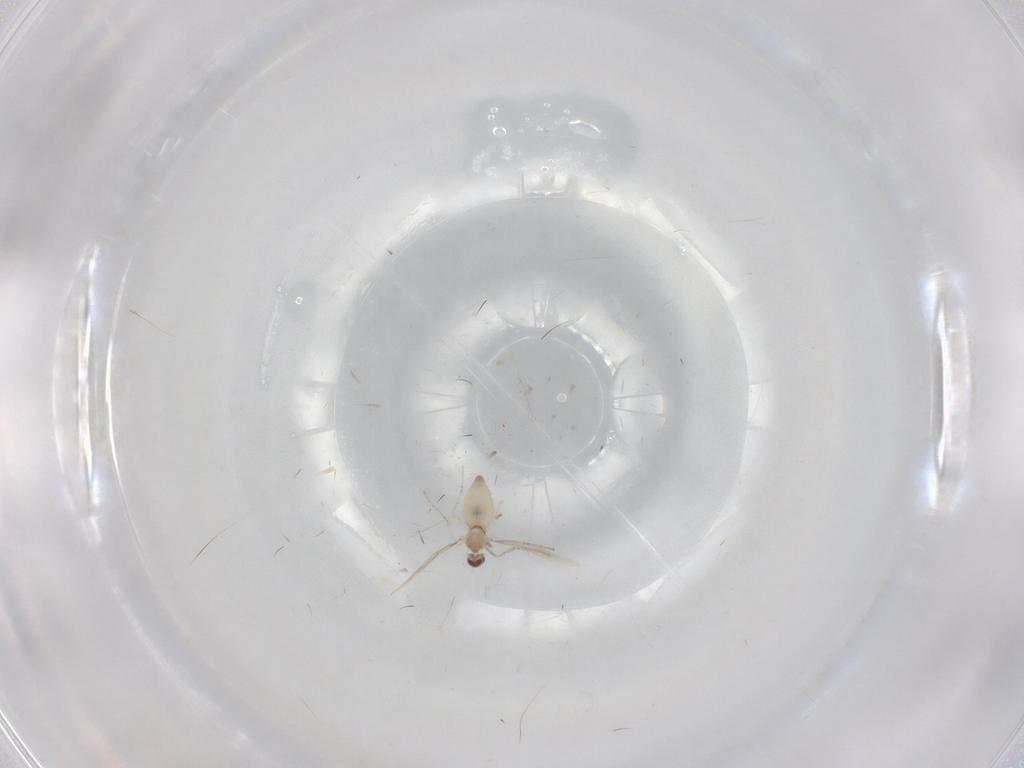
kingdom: Animalia
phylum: Arthropoda
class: Insecta
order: Diptera
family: Cecidomyiidae
